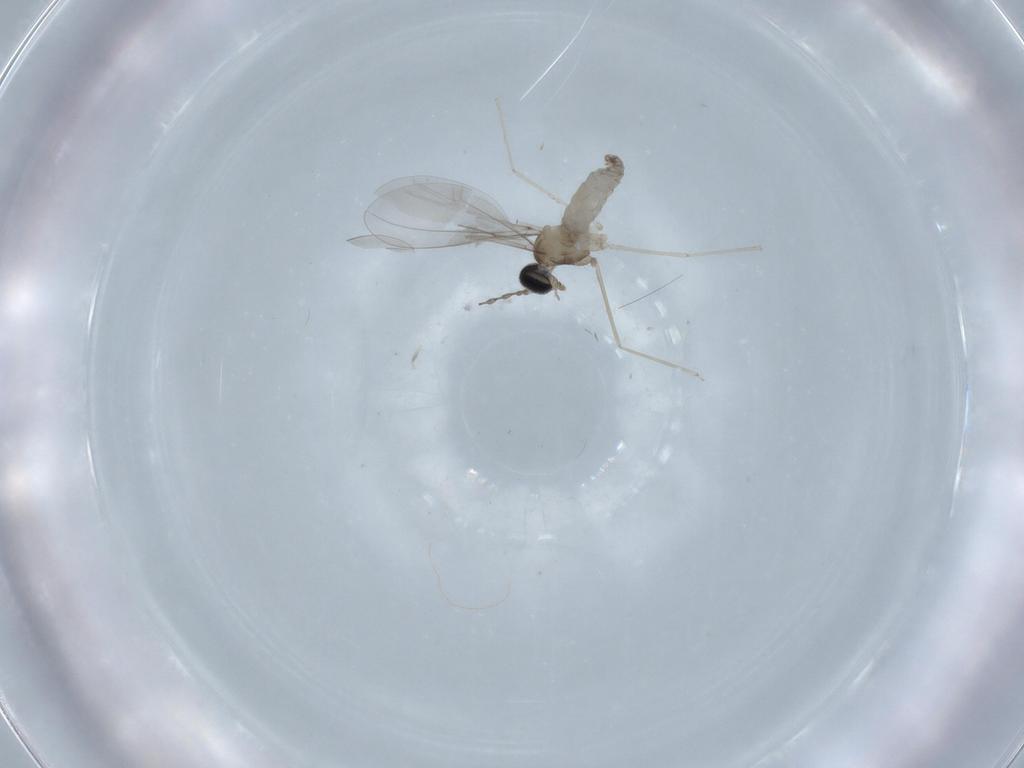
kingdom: Animalia
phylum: Arthropoda
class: Insecta
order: Diptera
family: Cecidomyiidae
